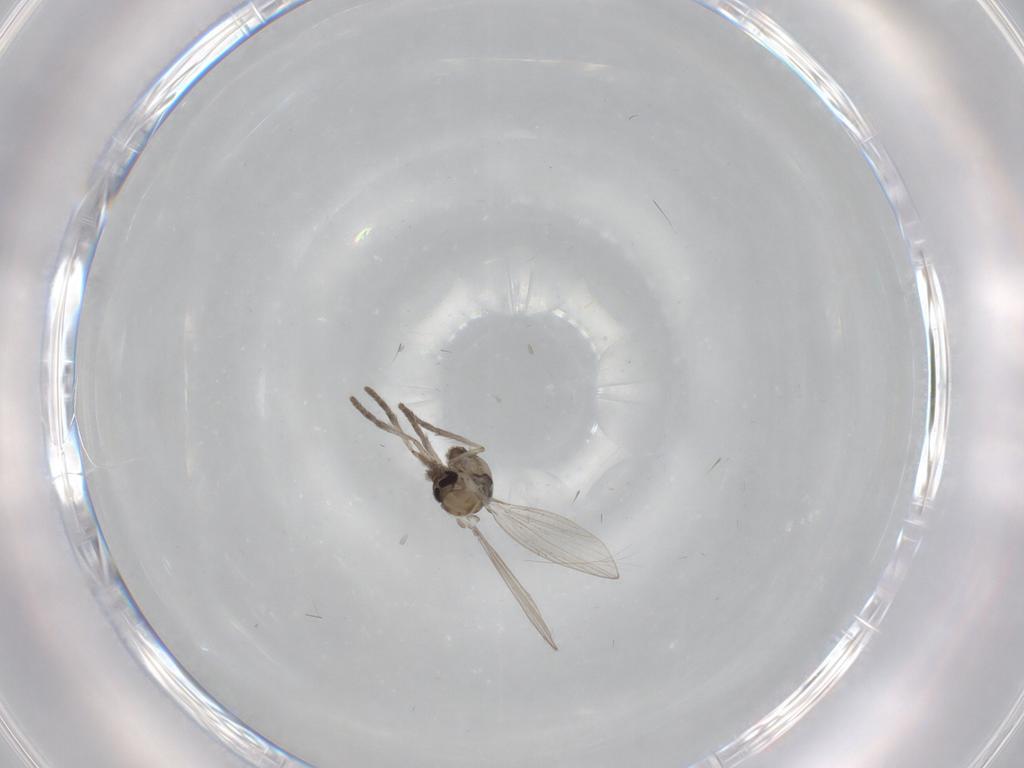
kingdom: Animalia
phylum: Arthropoda
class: Insecta
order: Diptera
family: Psychodidae
